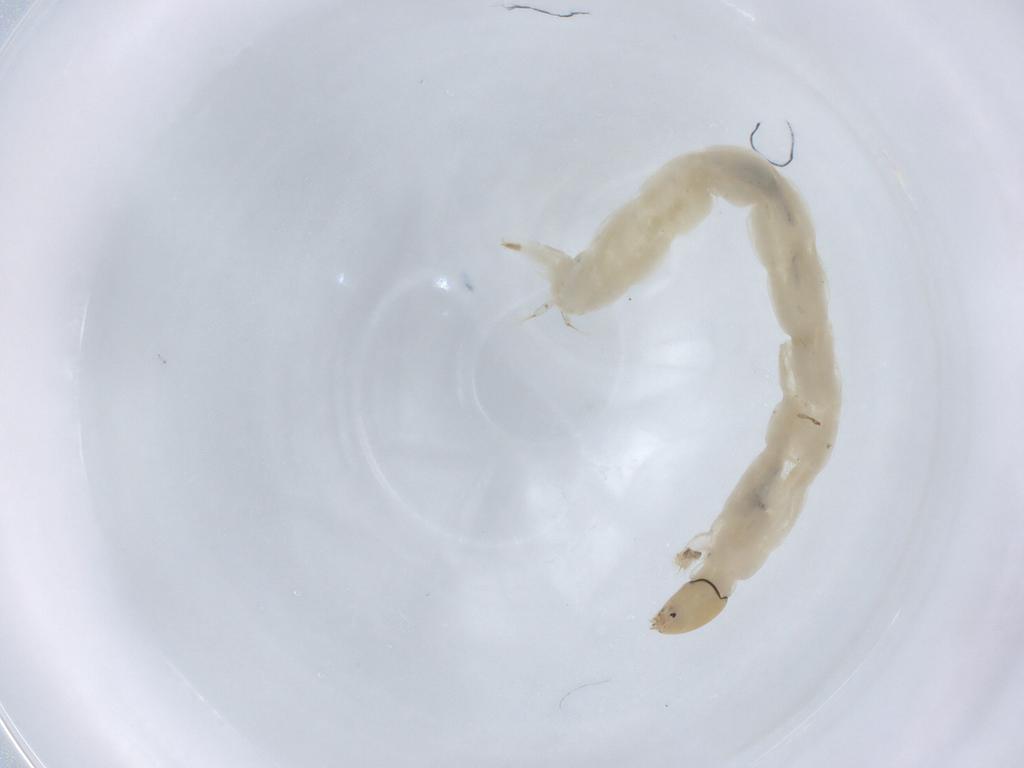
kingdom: Animalia
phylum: Arthropoda
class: Insecta
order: Diptera
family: Chironomidae
